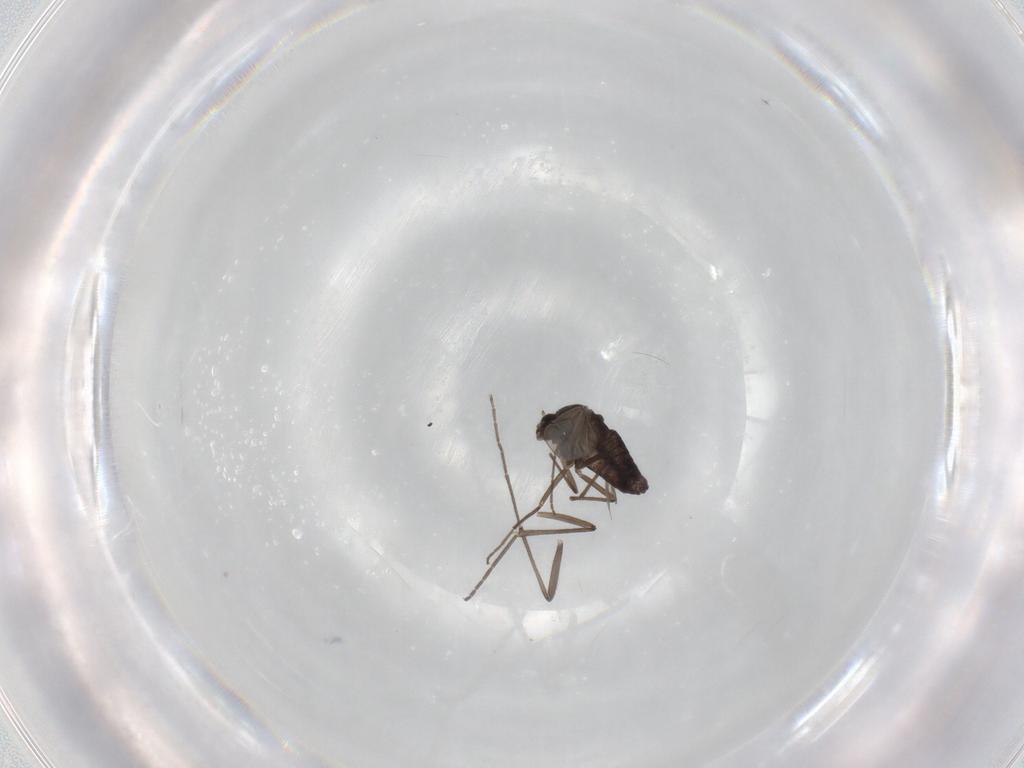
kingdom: Animalia
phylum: Arthropoda
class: Insecta
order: Diptera
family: Sciaridae
